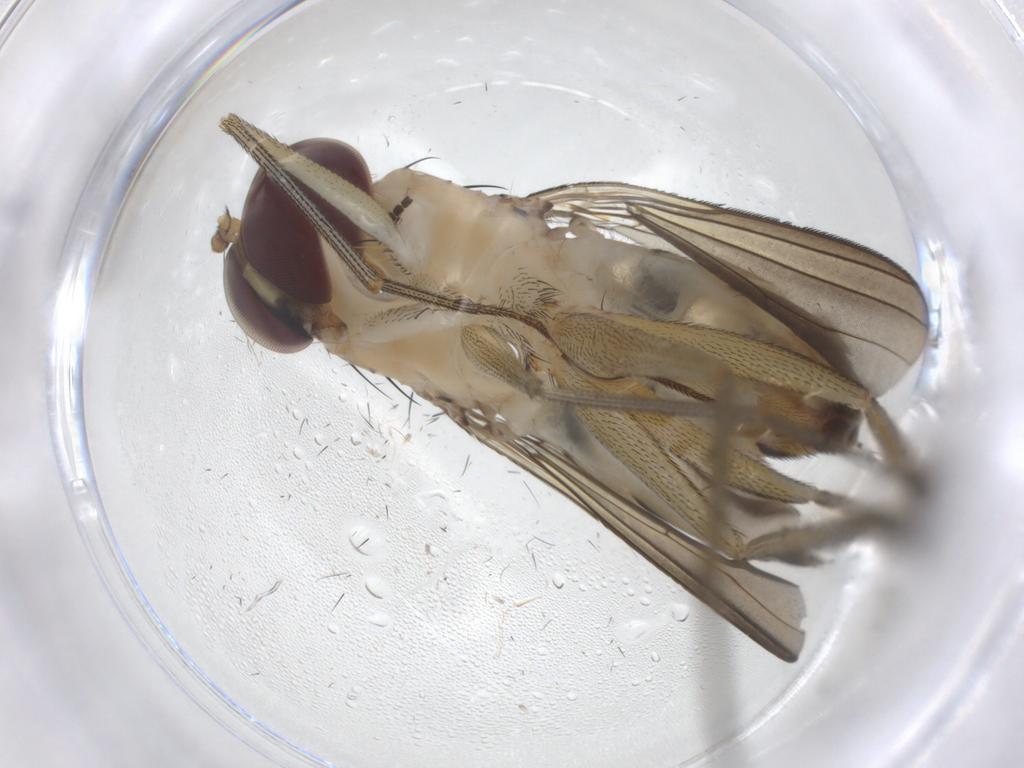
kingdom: Animalia
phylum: Arthropoda
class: Insecta
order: Diptera
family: Dolichopodidae
